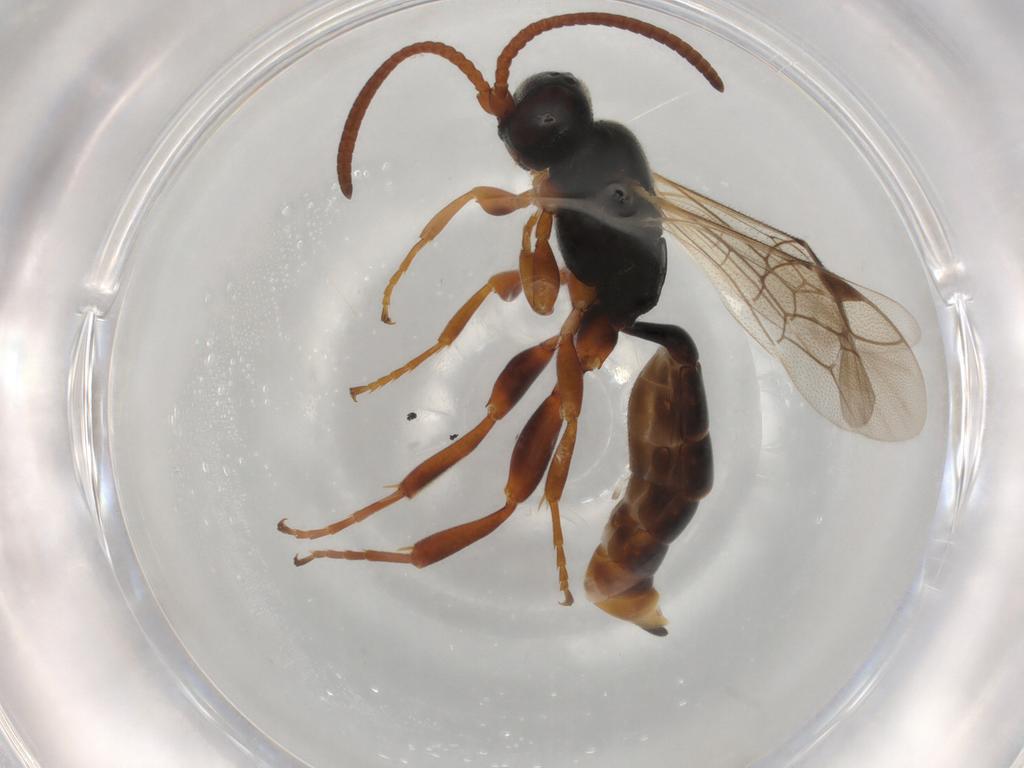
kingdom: Animalia
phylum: Arthropoda
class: Insecta
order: Hymenoptera
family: Ichneumonidae
